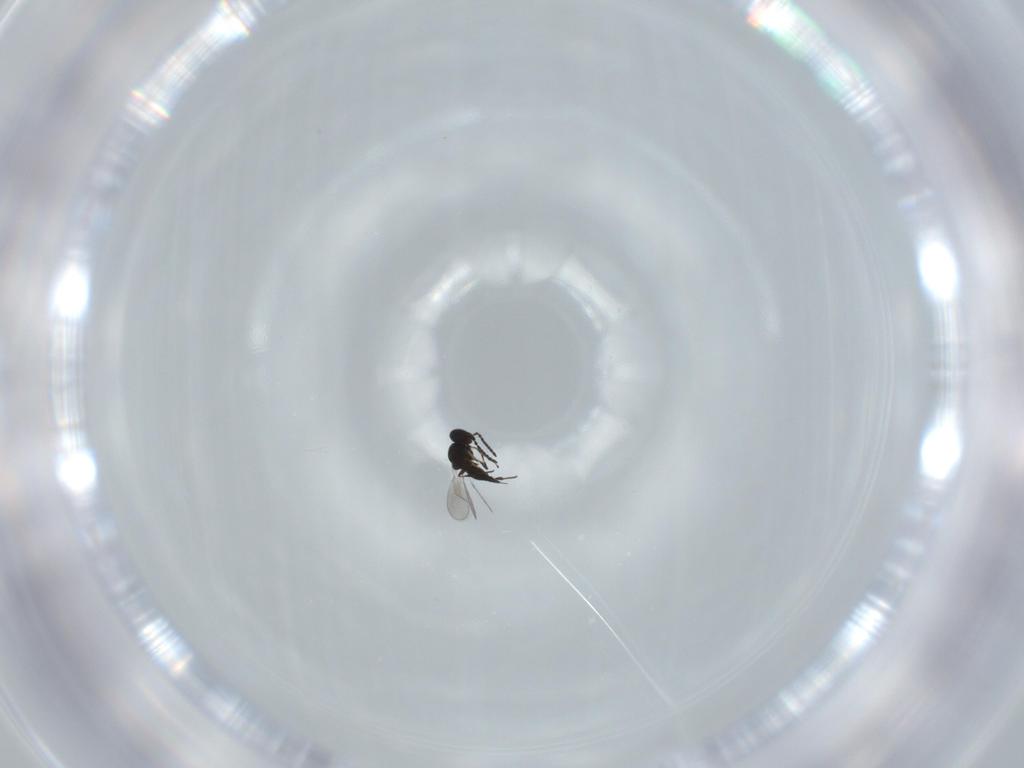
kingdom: Animalia
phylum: Arthropoda
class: Insecta
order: Hymenoptera
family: Platygastridae
